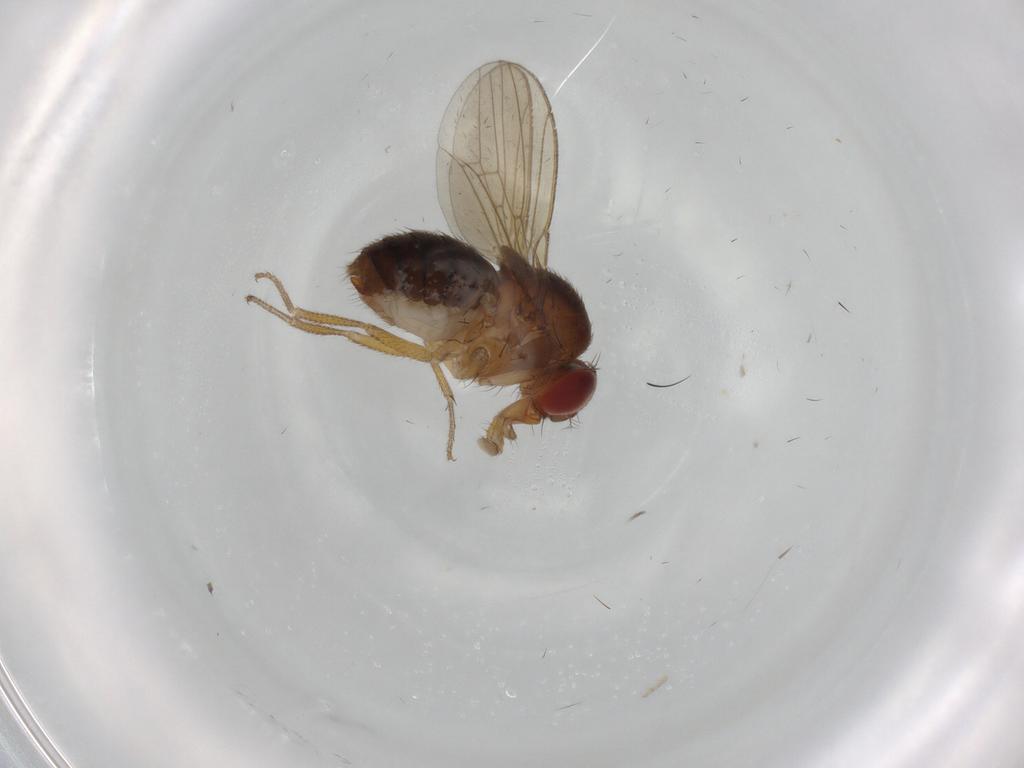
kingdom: Animalia
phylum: Arthropoda
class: Insecta
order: Diptera
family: Drosophilidae
